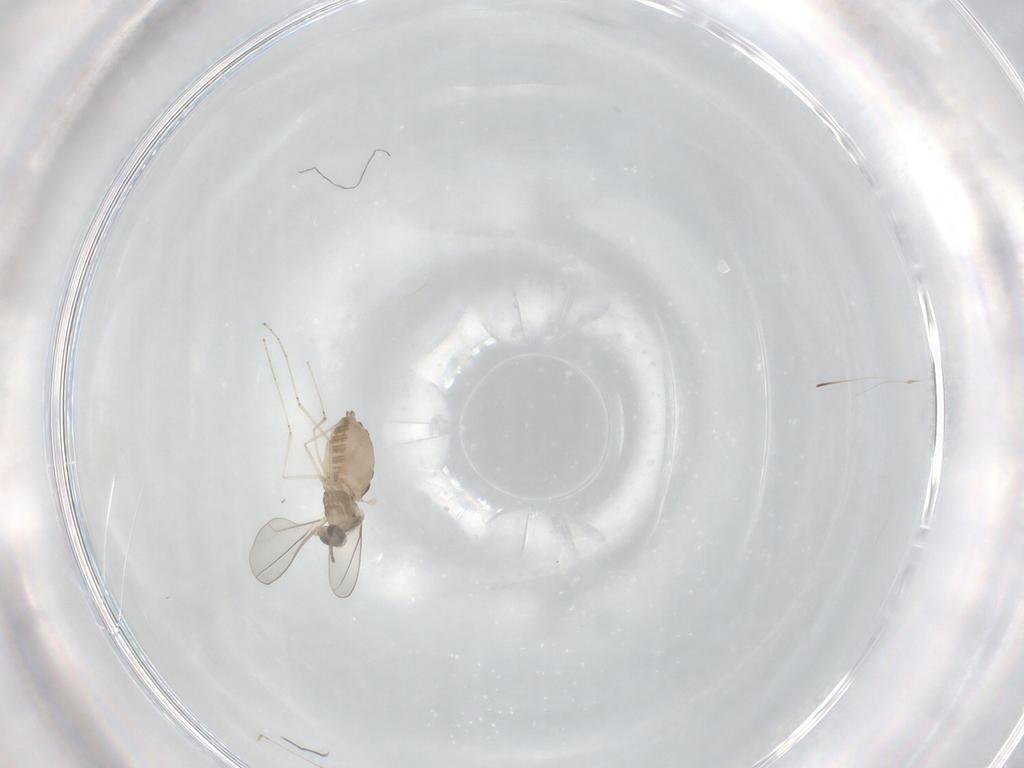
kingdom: Animalia
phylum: Arthropoda
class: Insecta
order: Diptera
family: Cecidomyiidae
